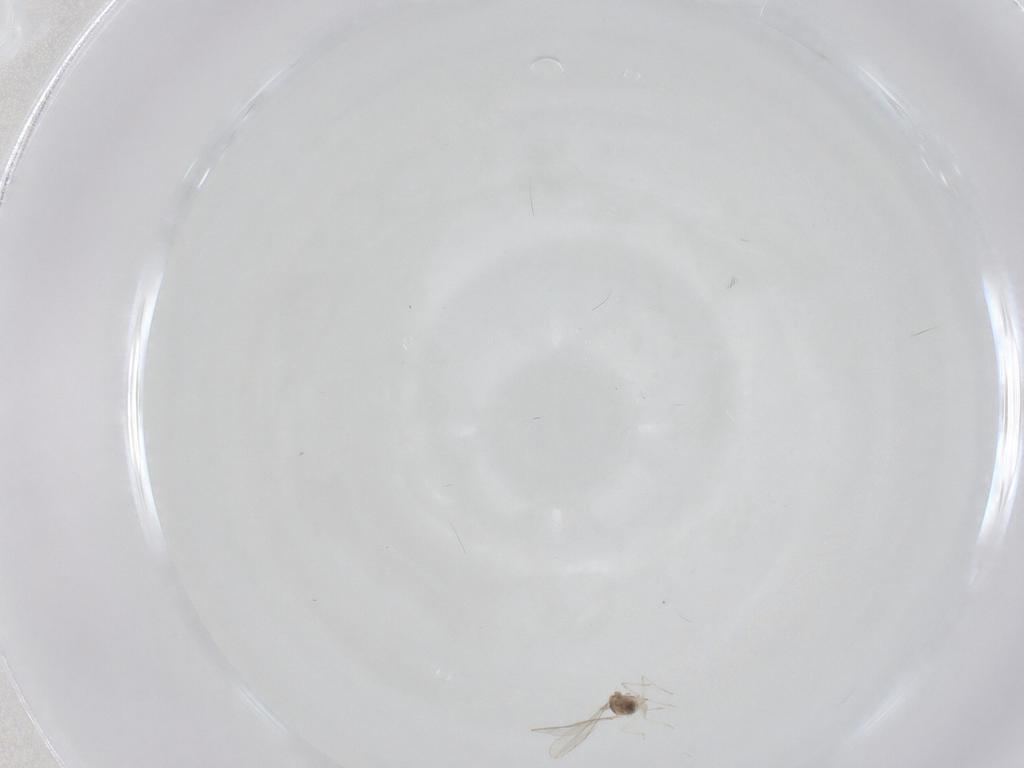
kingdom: Animalia
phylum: Arthropoda
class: Insecta
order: Diptera
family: Cecidomyiidae
